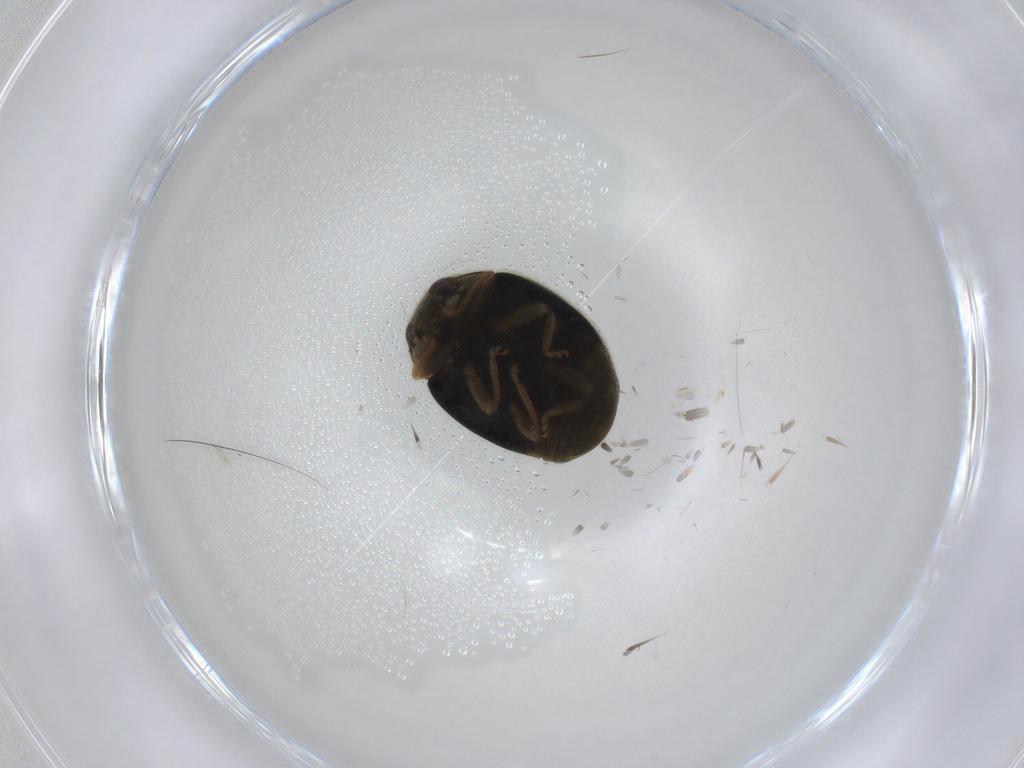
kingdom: Animalia
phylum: Arthropoda
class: Insecta
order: Coleoptera
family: Coccinellidae
